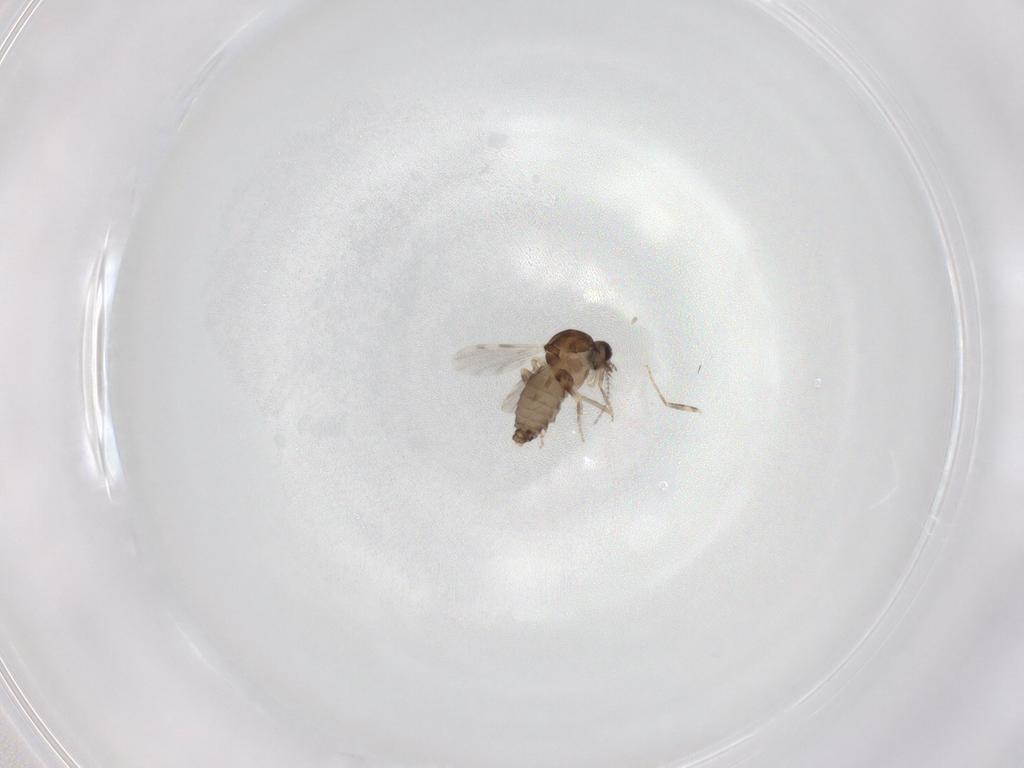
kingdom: Animalia
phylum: Arthropoda
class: Insecta
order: Diptera
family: Ceratopogonidae
